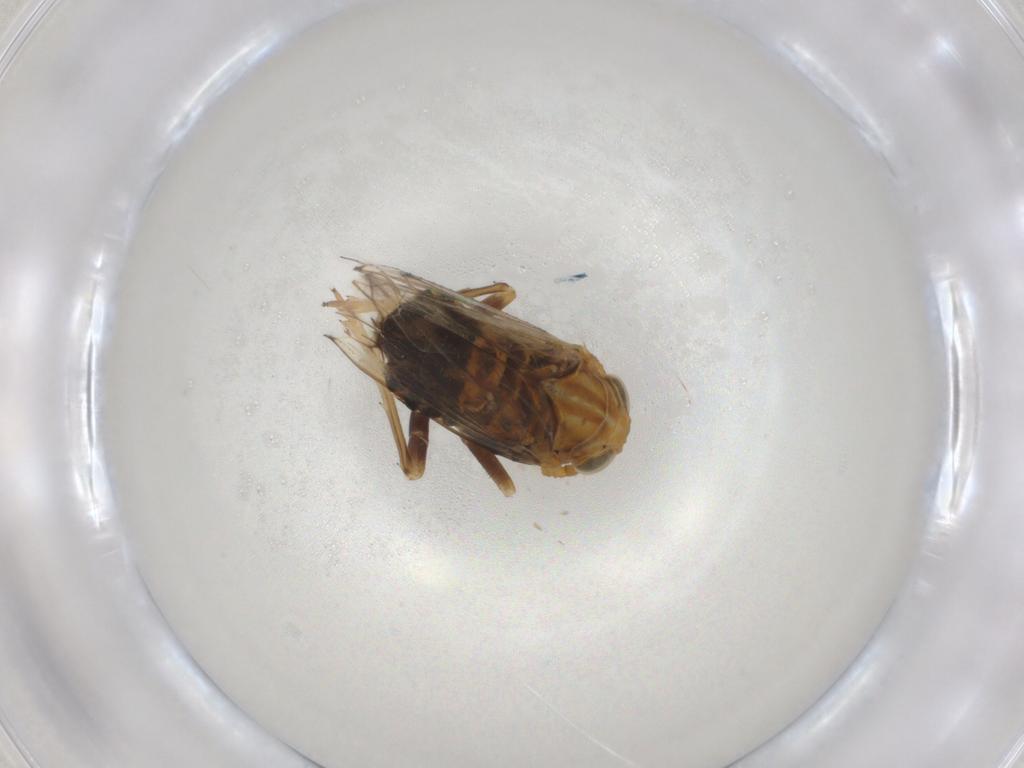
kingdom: Animalia
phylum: Arthropoda
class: Insecta
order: Hemiptera
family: Delphacidae
